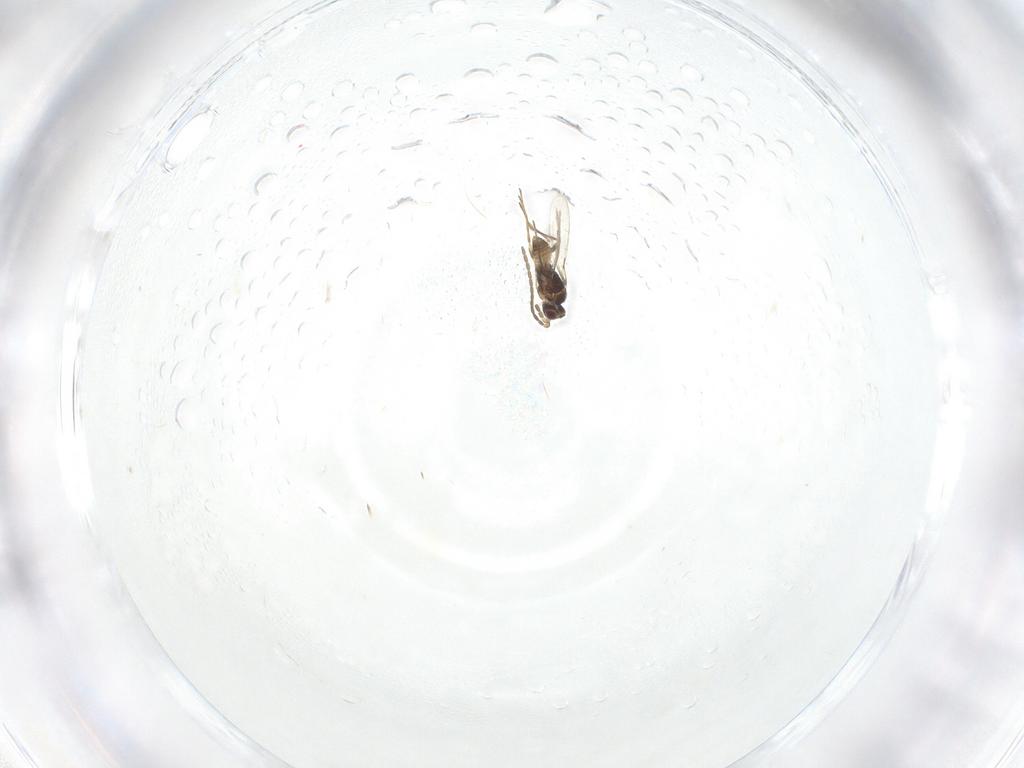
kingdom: Animalia
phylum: Arthropoda
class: Insecta
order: Hymenoptera
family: Mymaridae
